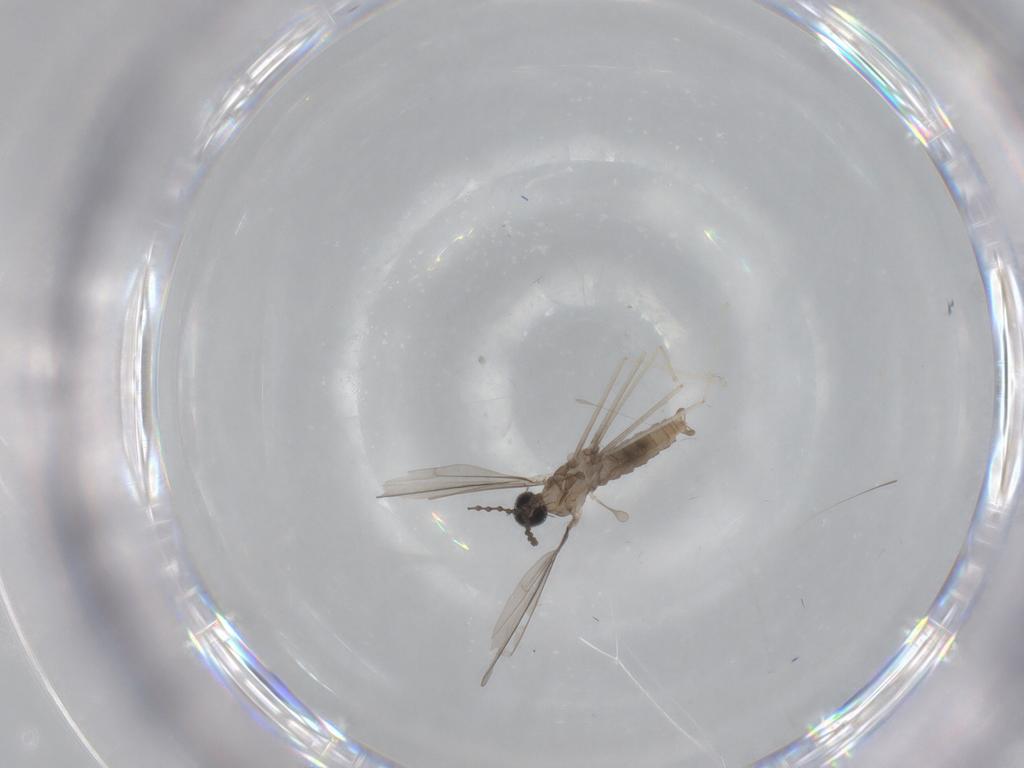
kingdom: Animalia
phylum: Arthropoda
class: Insecta
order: Diptera
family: Cecidomyiidae
